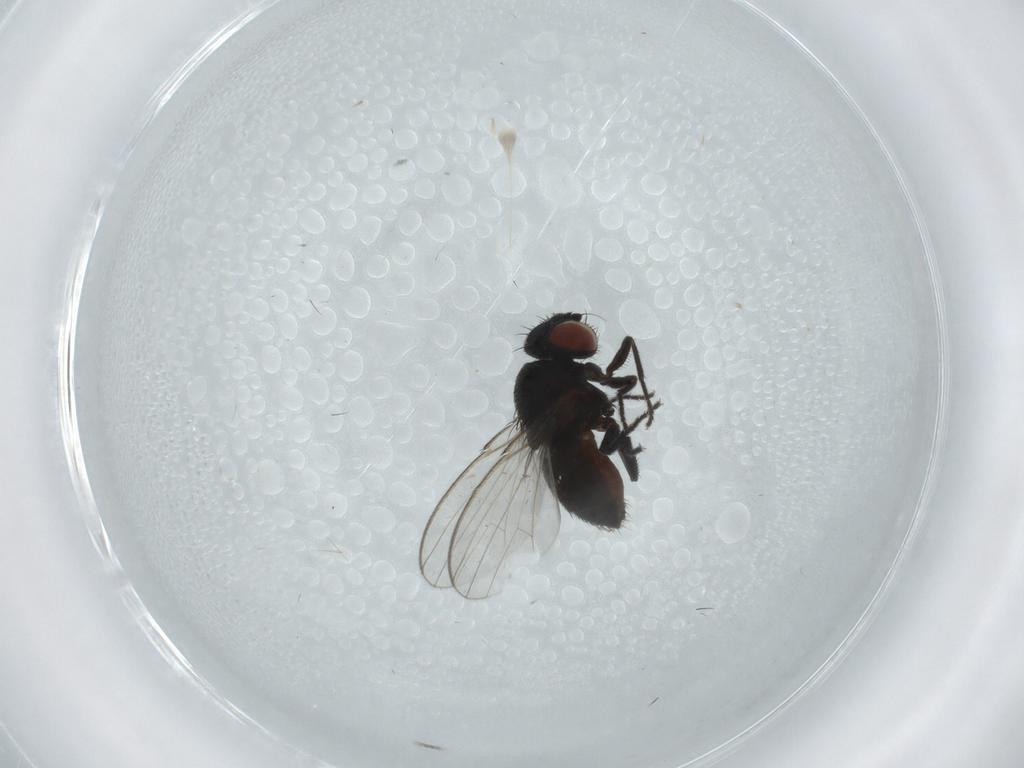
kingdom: Animalia
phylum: Arthropoda
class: Insecta
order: Diptera
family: Milichiidae
